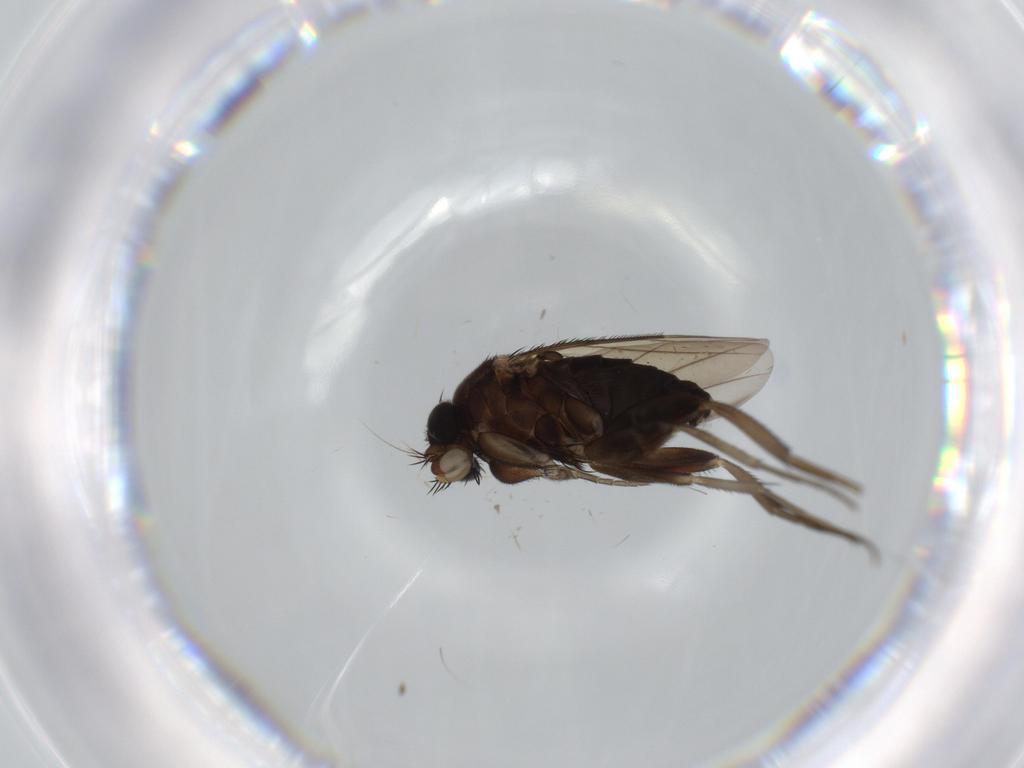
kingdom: Animalia
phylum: Arthropoda
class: Insecta
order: Diptera
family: Phoridae
